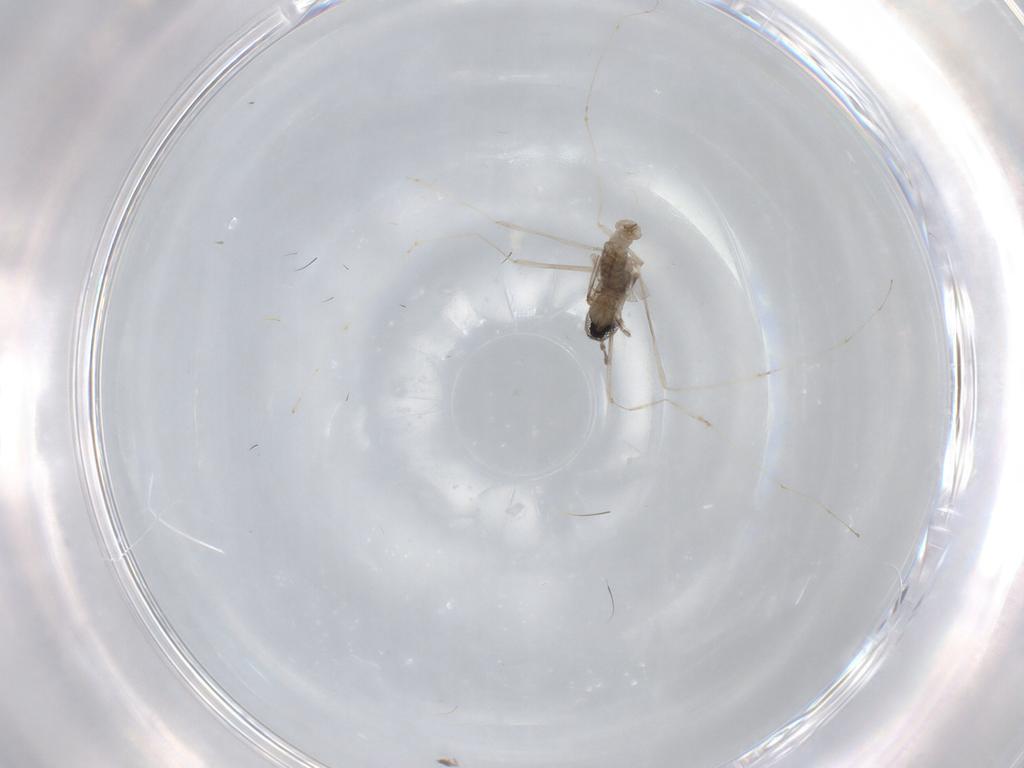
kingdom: Animalia
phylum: Arthropoda
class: Insecta
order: Diptera
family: Cecidomyiidae
